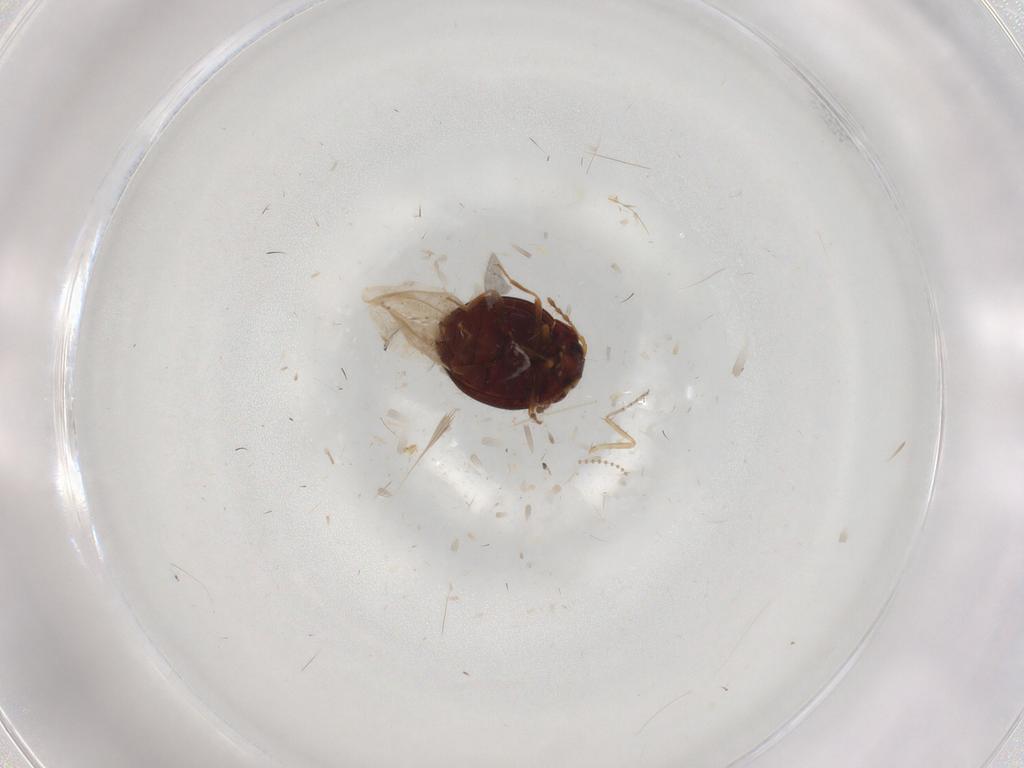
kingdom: Animalia
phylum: Arthropoda
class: Insecta
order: Coleoptera
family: Anamorphidae
